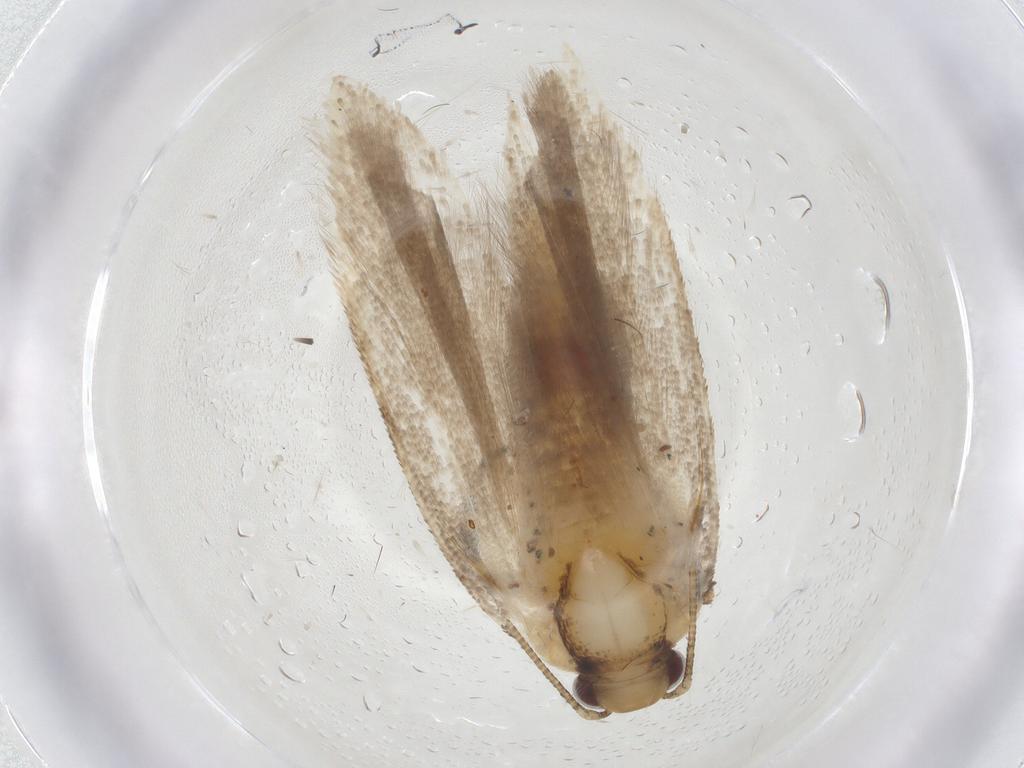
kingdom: Animalia
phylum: Arthropoda
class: Insecta
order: Lepidoptera
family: Gelechiidae
